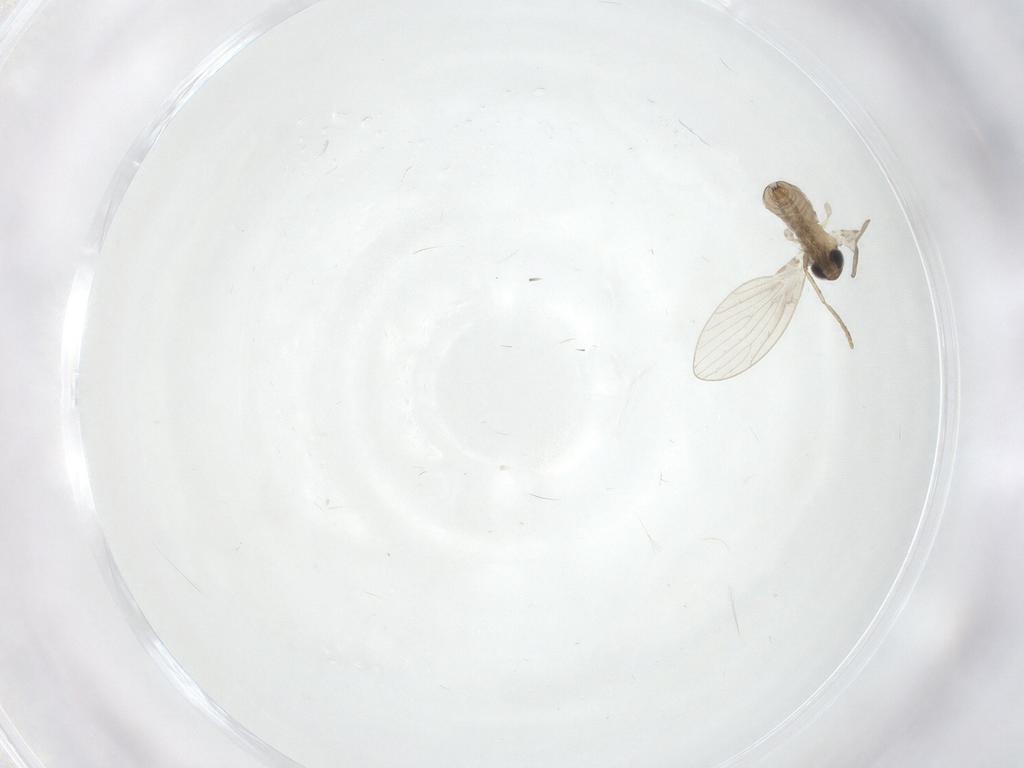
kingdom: Animalia
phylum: Arthropoda
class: Insecta
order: Diptera
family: Psychodidae
